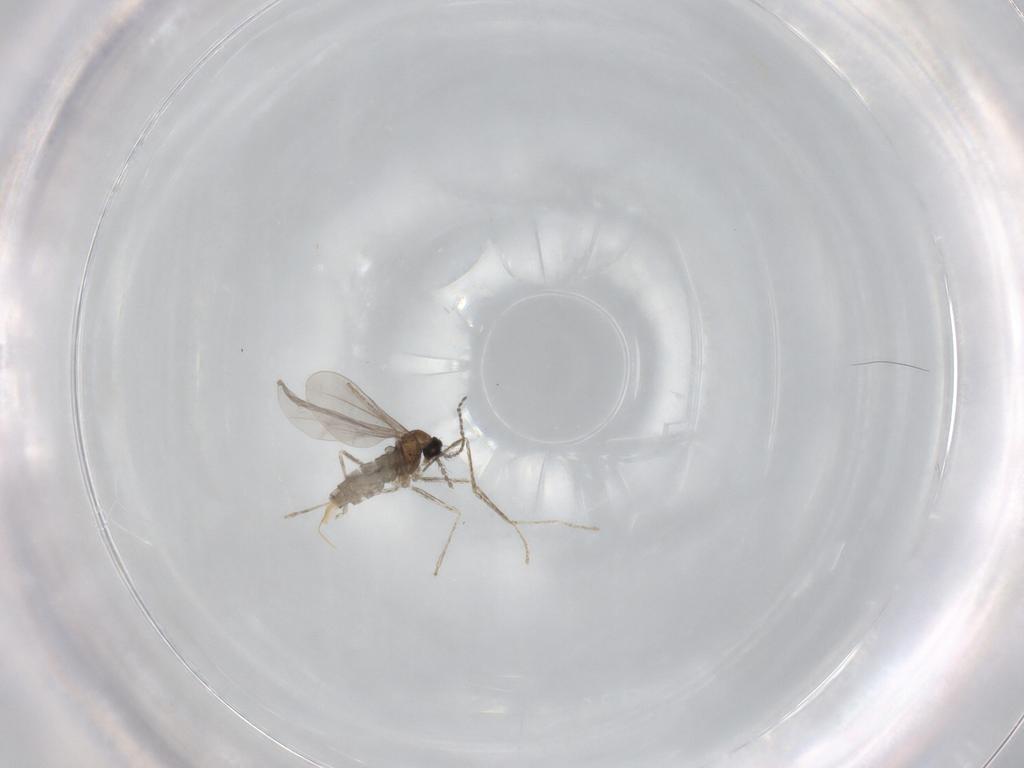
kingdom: Animalia
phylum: Arthropoda
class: Insecta
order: Diptera
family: Cecidomyiidae
